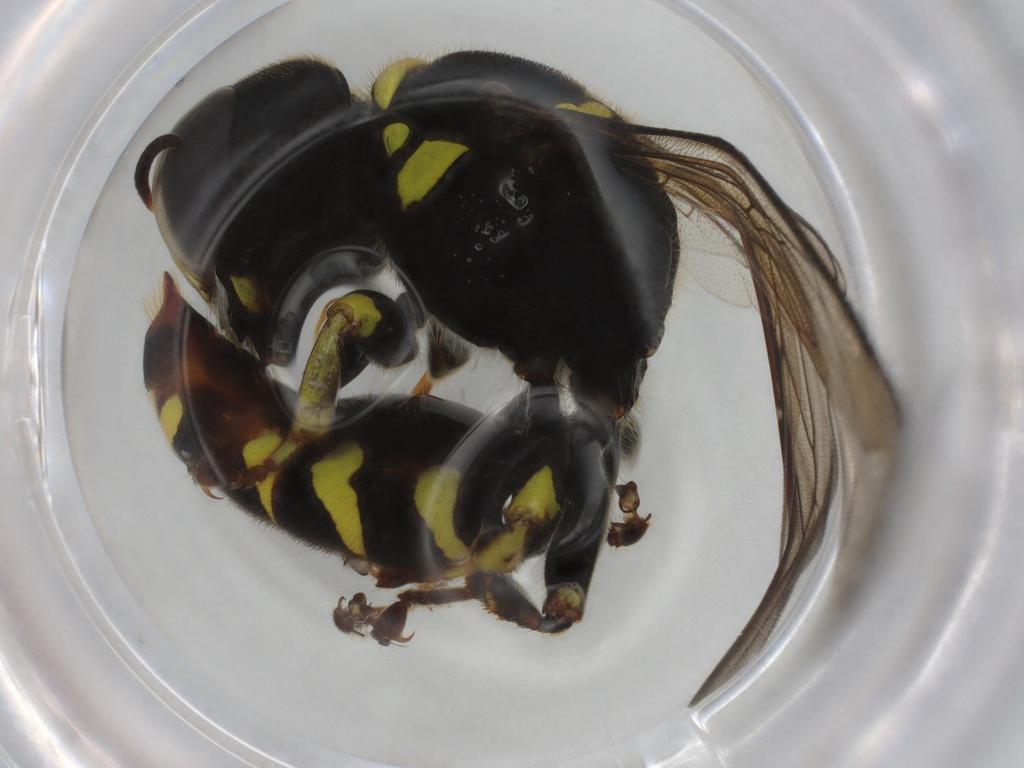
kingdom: Animalia
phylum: Arthropoda
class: Insecta
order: Hymenoptera
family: Crabronidae
